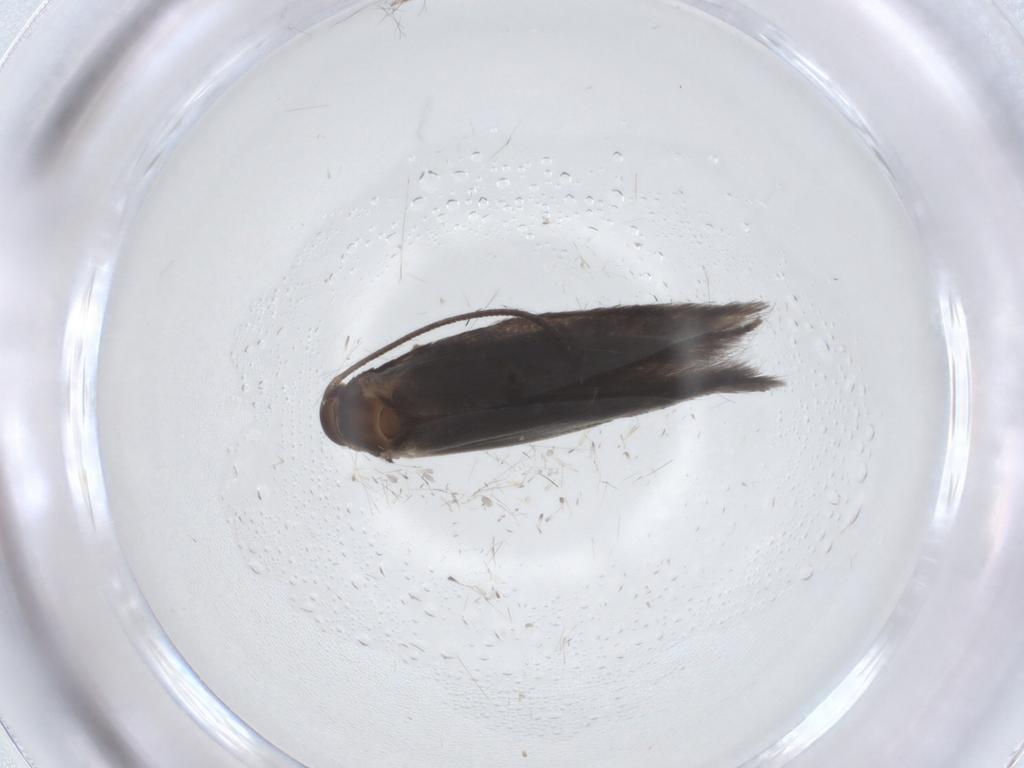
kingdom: Animalia
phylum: Arthropoda
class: Insecta
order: Lepidoptera
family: Elachistidae
